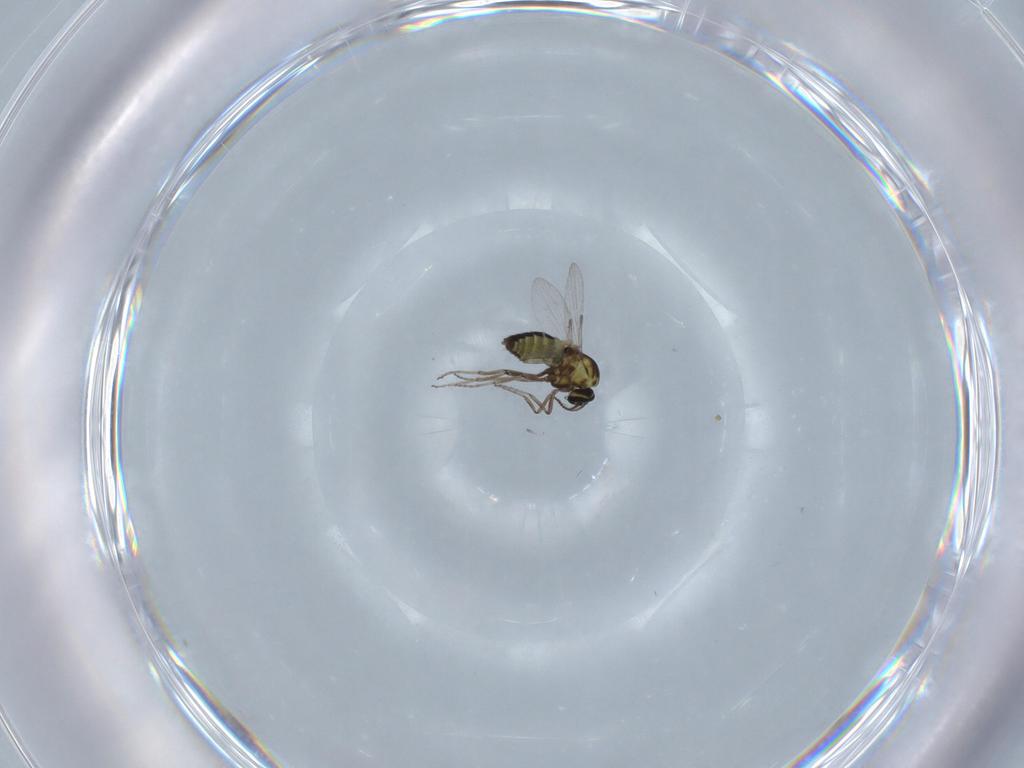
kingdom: Animalia
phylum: Arthropoda
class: Insecta
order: Diptera
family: Ceratopogonidae
